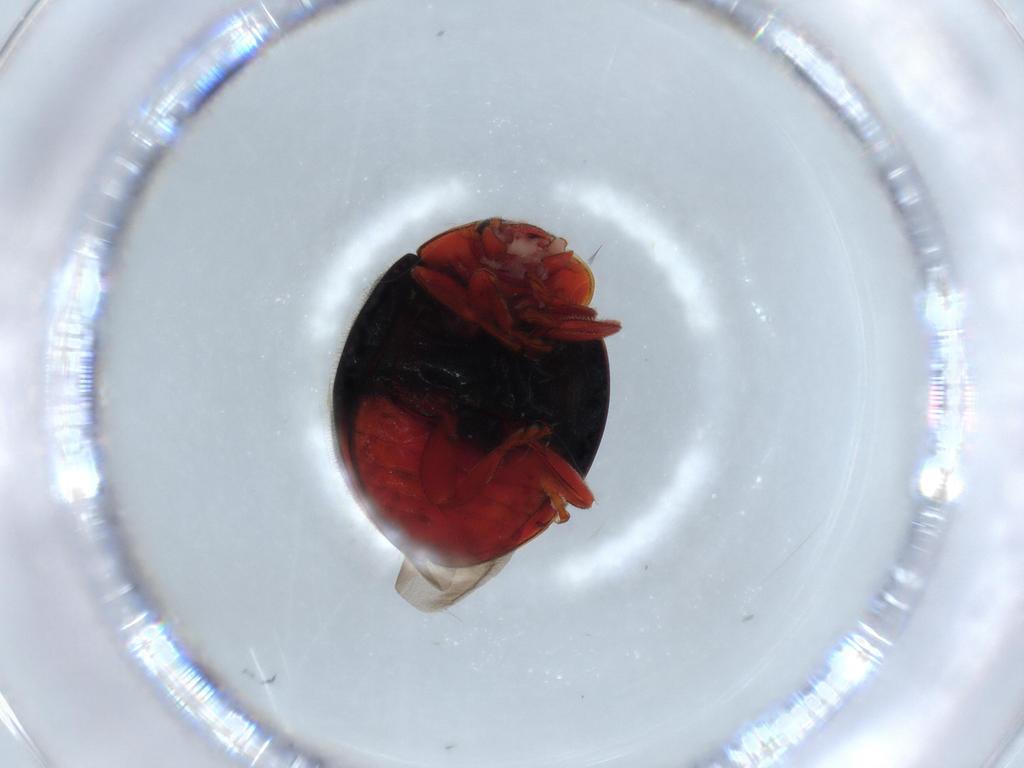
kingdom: Animalia
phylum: Arthropoda
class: Insecta
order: Coleoptera
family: Coccinellidae
